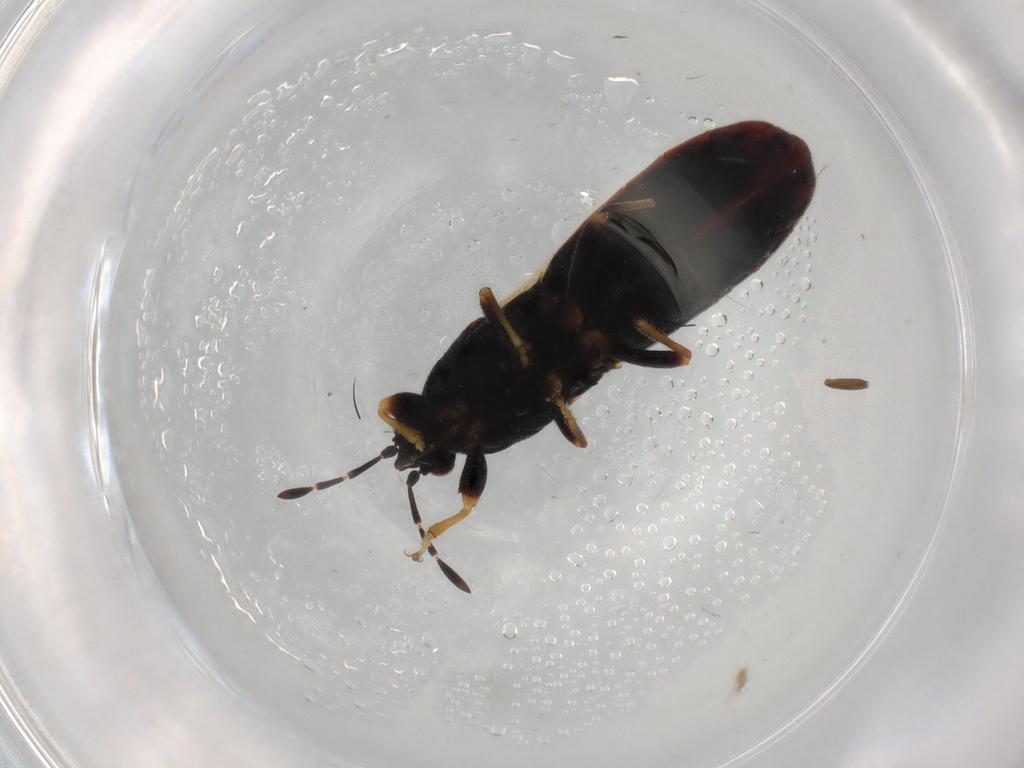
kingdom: Animalia
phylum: Arthropoda
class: Insecta
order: Hemiptera
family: Blissidae
